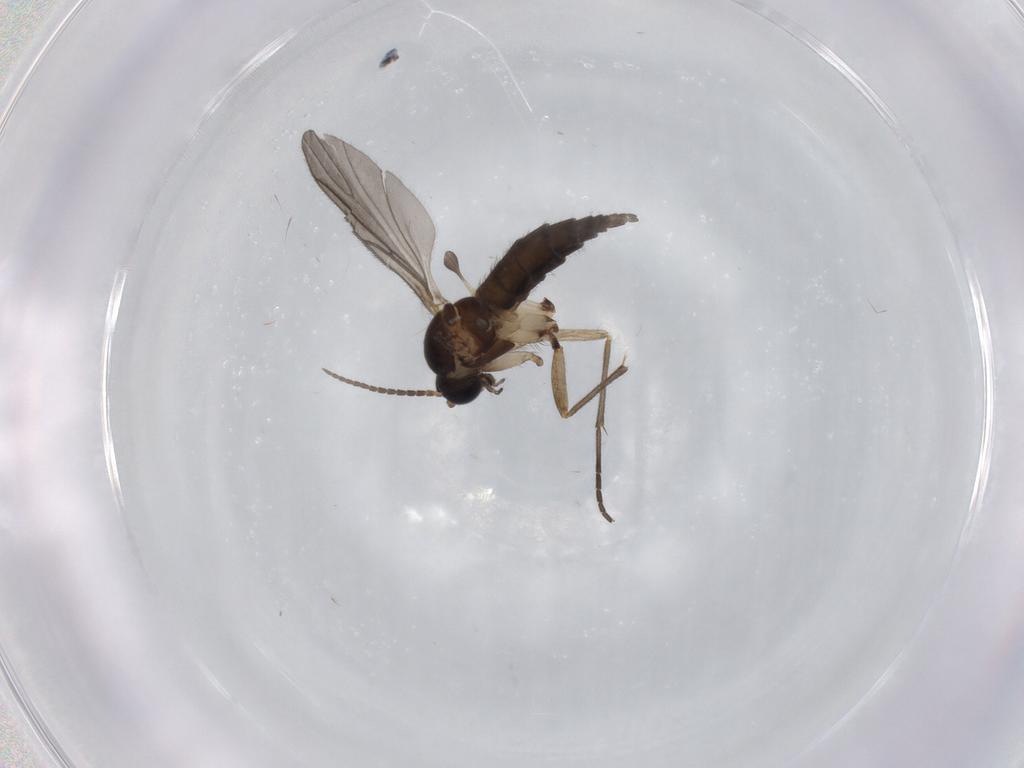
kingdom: Animalia
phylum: Arthropoda
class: Insecta
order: Diptera
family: Sciaridae
